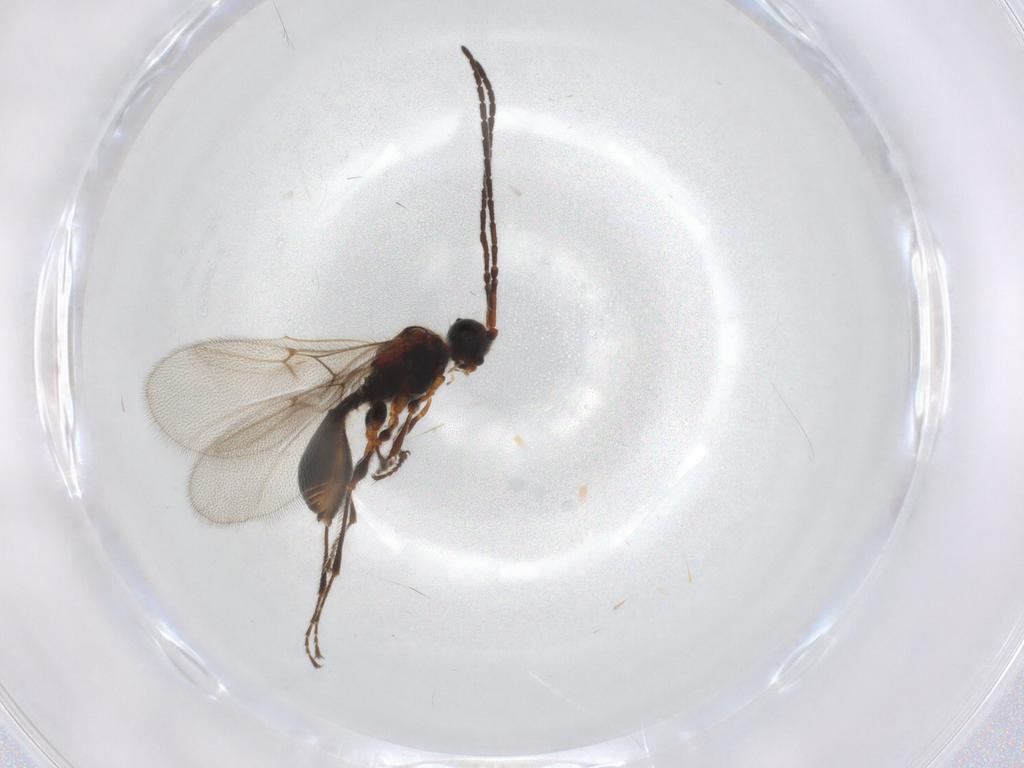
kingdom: Animalia
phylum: Arthropoda
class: Insecta
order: Hymenoptera
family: Diapriidae
